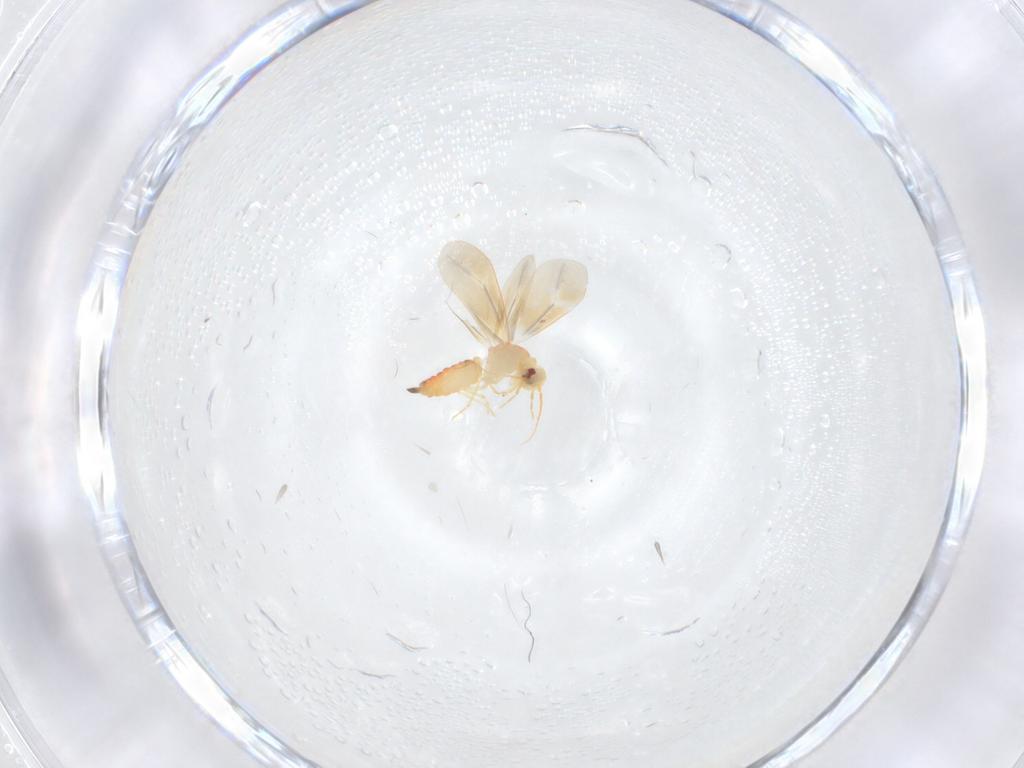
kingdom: Animalia
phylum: Arthropoda
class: Insecta
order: Hemiptera
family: Aleyrodidae
